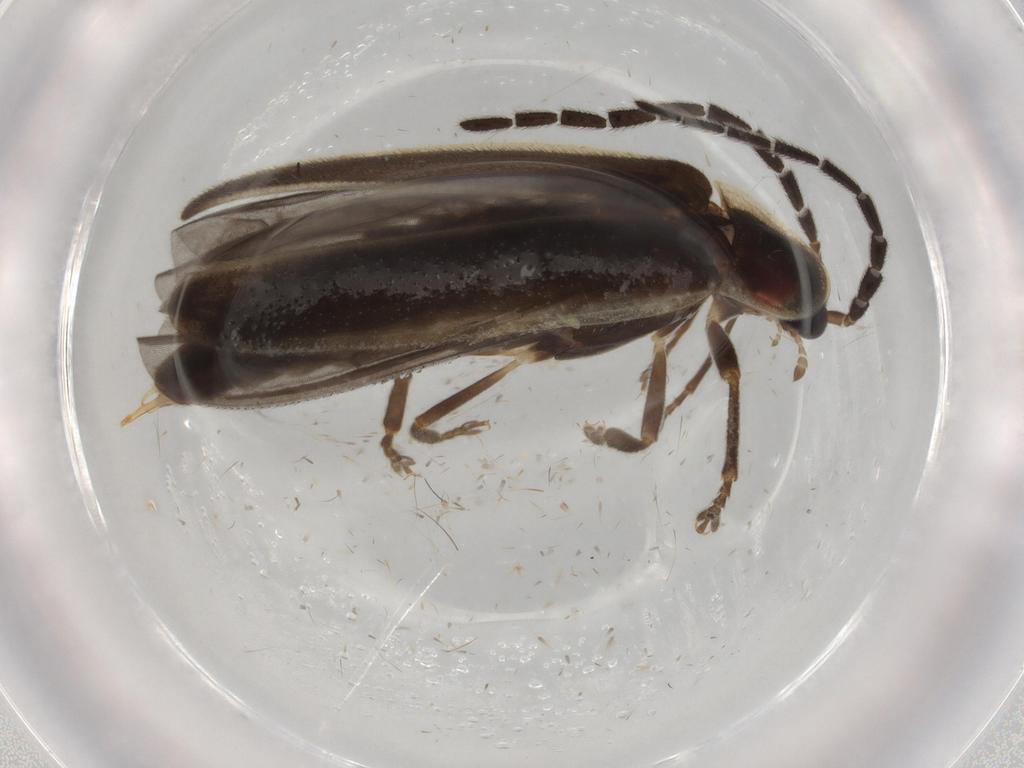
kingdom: Animalia
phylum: Arthropoda
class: Insecta
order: Coleoptera
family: Lampyridae
